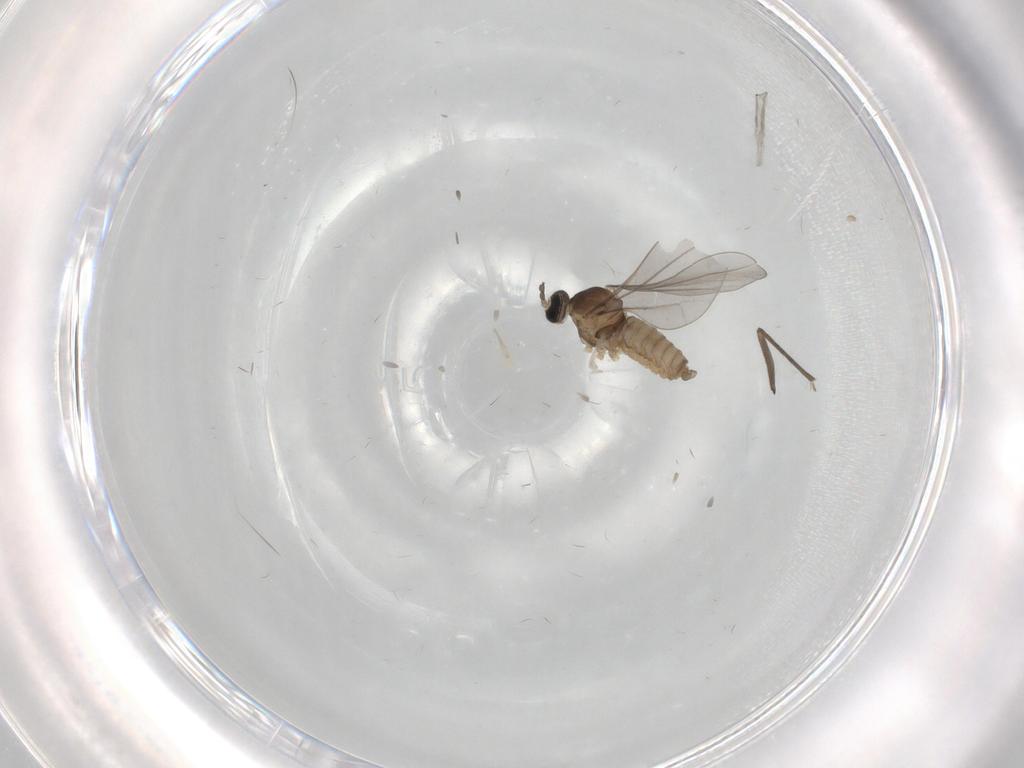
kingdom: Animalia
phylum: Arthropoda
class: Insecta
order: Diptera
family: Cecidomyiidae
